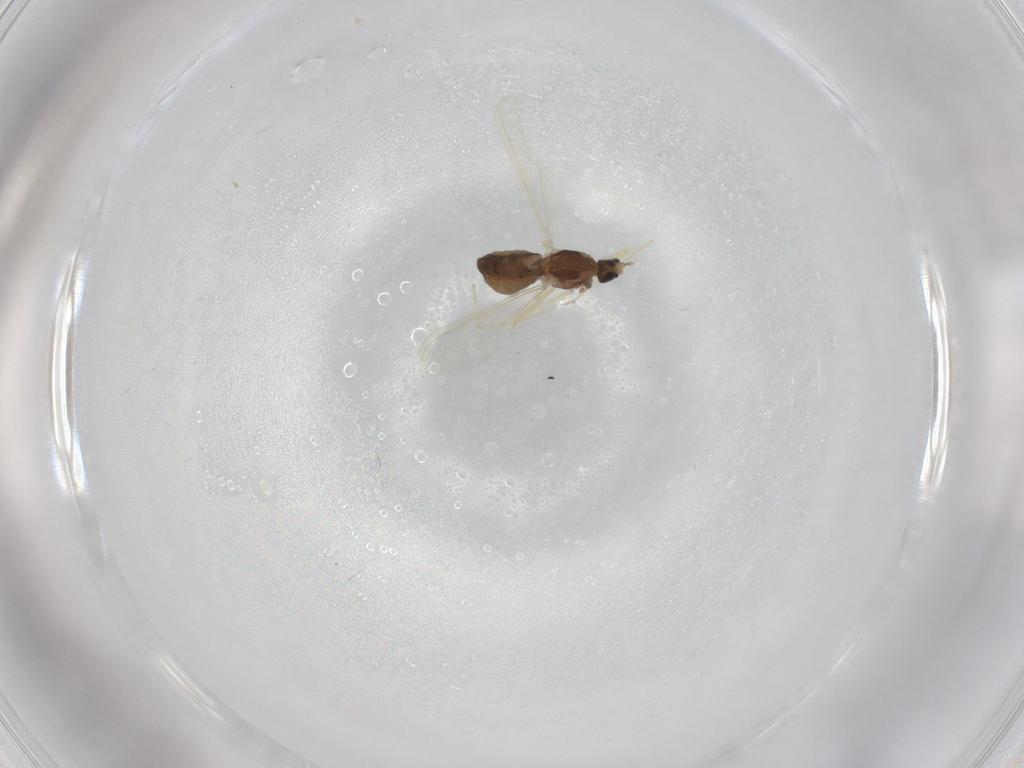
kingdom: Animalia
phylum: Arthropoda
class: Insecta
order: Diptera
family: Chironomidae
